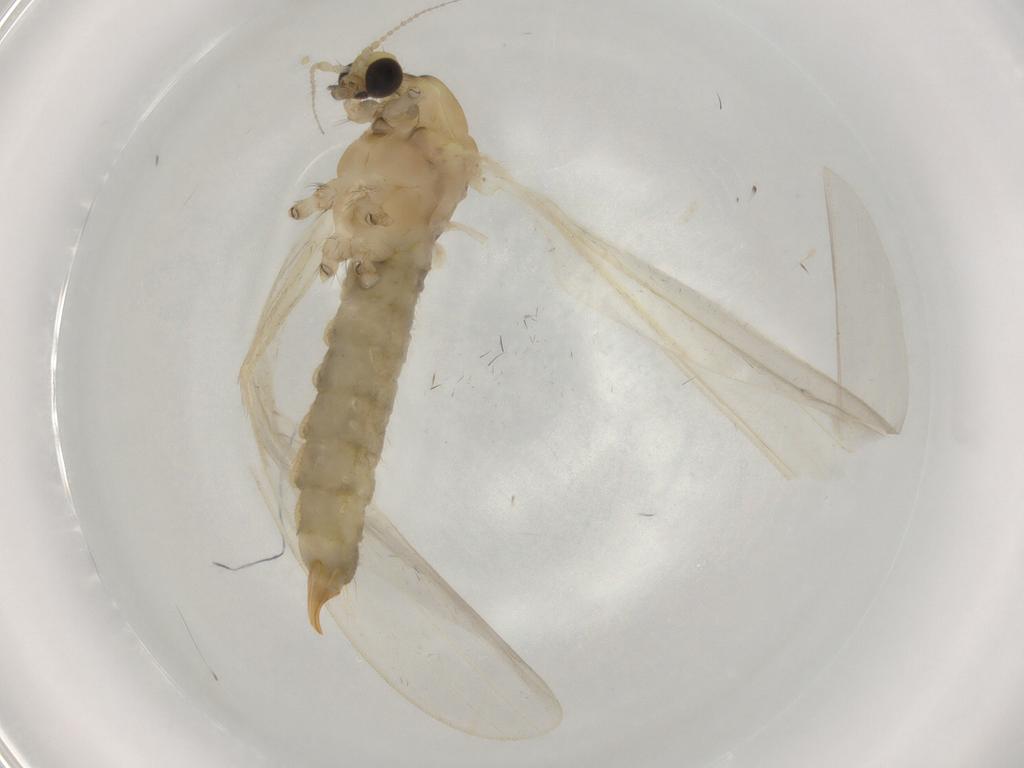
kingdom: Animalia
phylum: Arthropoda
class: Insecta
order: Diptera
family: Limoniidae
